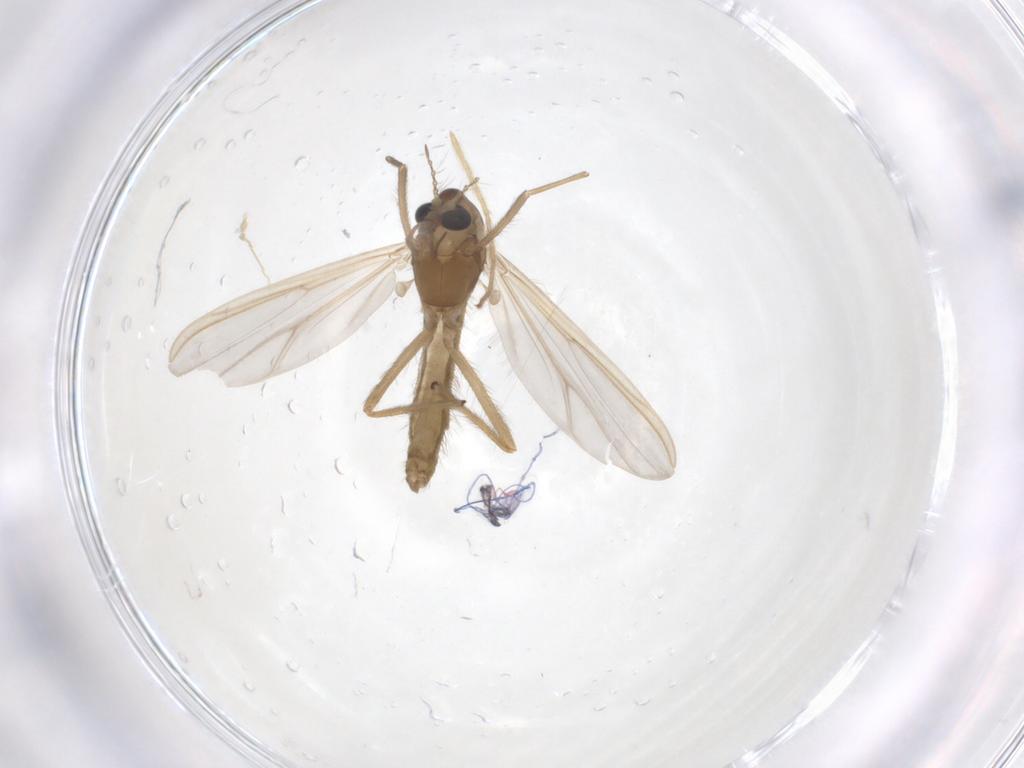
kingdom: Animalia
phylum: Arthropoda
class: Insecta
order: Diptera
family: Chironomidae
